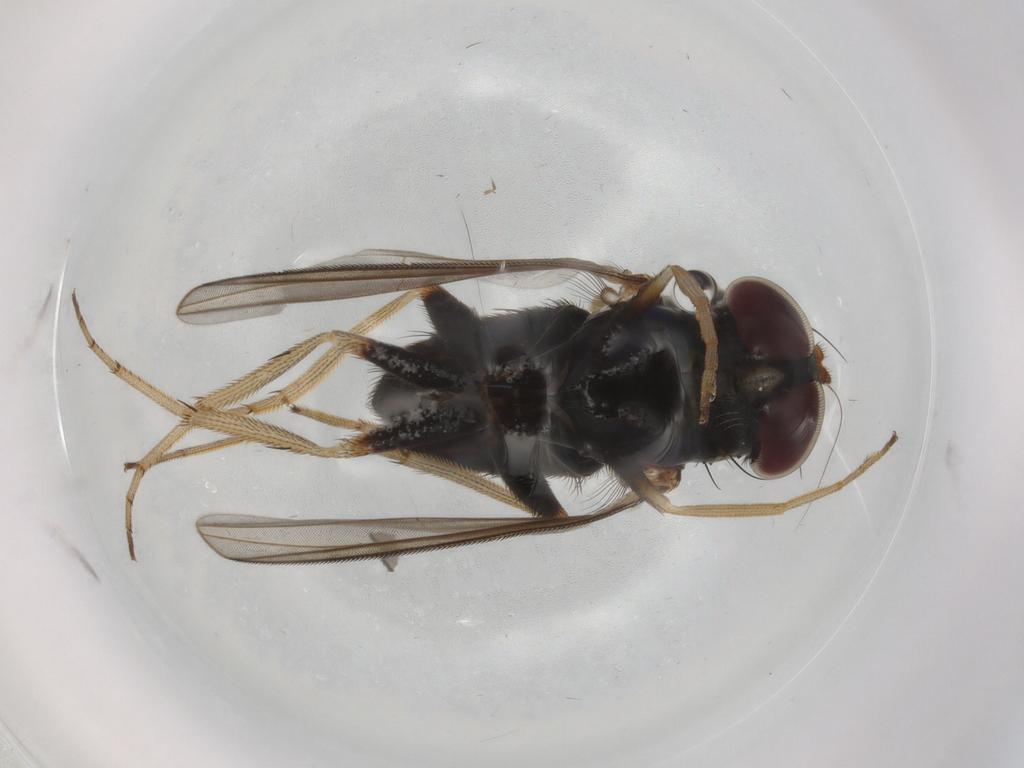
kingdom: Animalia
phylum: Arthropoda
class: Insecta
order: Diptera
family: Dolichopodidae
